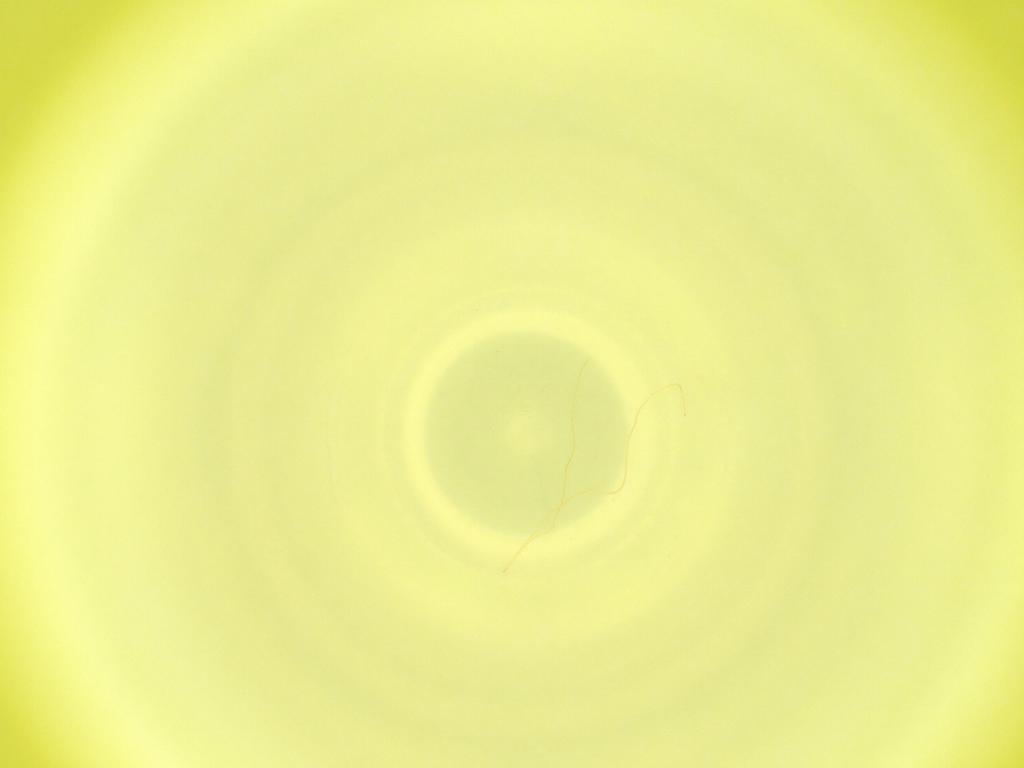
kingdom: Animalia
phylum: Arthropoda
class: Insecta
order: Diptera
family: Cecidomyiidae
